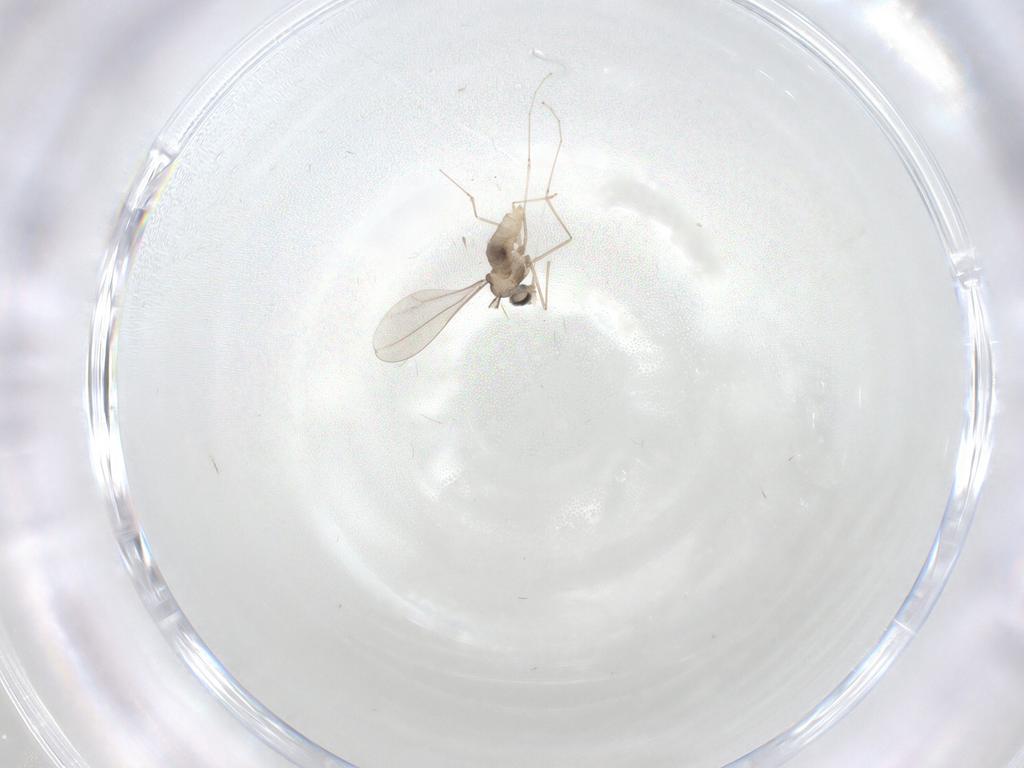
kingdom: Animalia
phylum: Arthropoda
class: Insecta
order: Diptera
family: Cecidomyiidae
